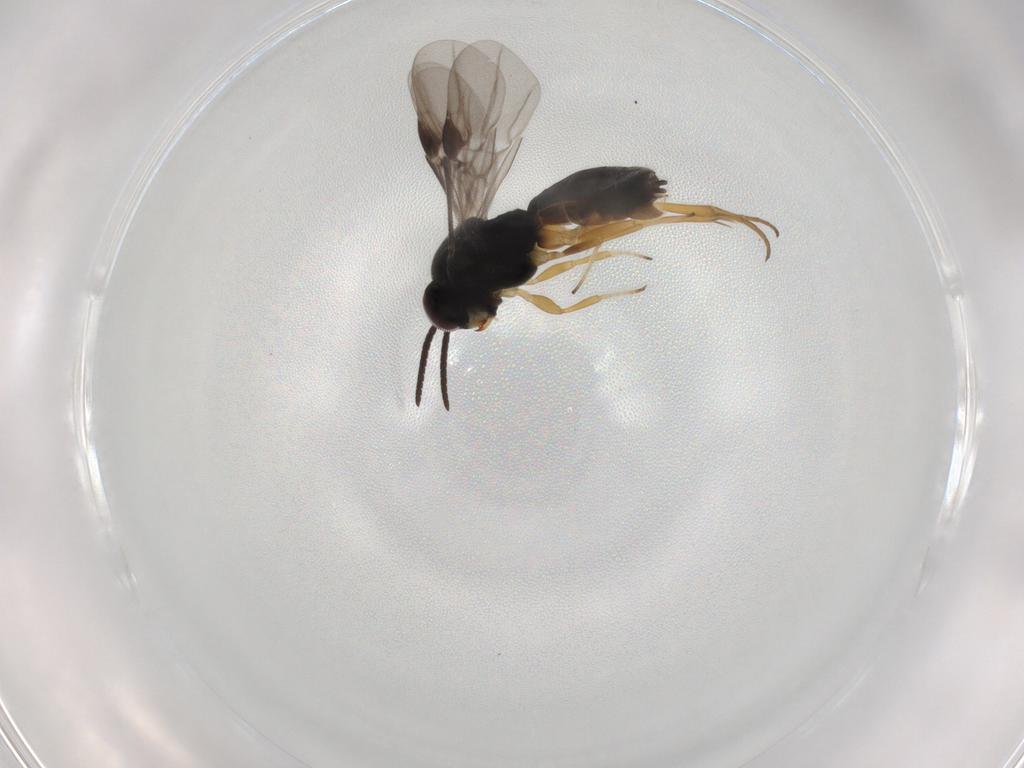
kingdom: Animalia
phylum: Arthropoda
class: Insecta
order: Hymenoptera
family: Braconidae
